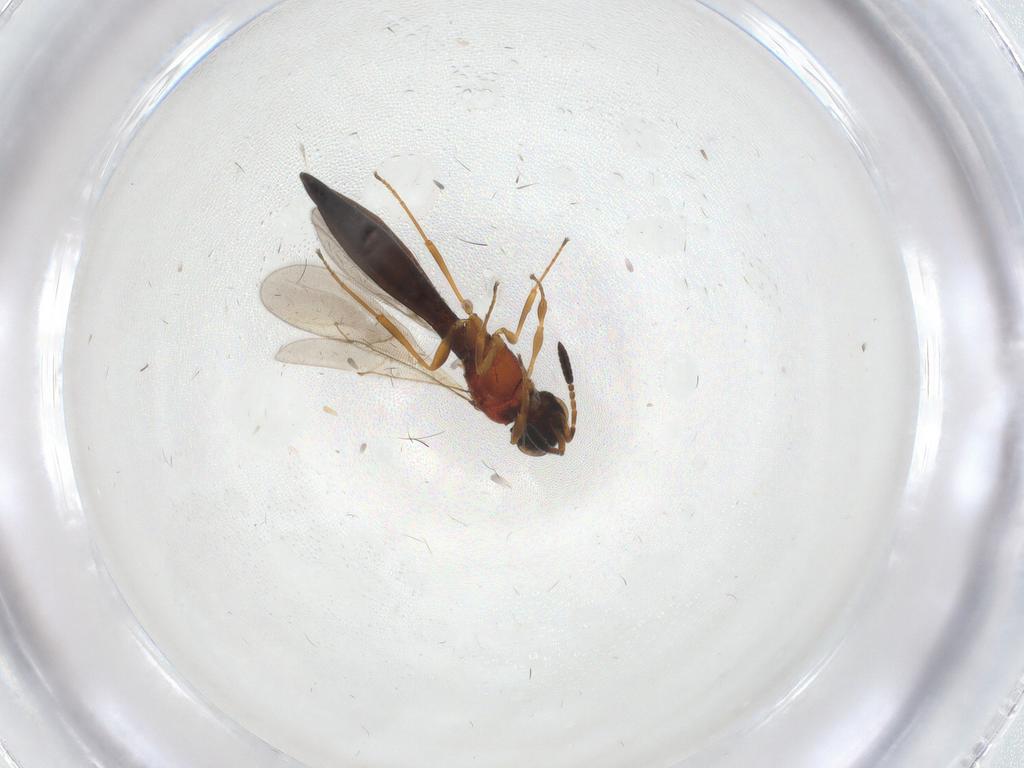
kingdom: Animalia
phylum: Arthropoda
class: Insecta
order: Hymenoptera
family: Scelionidae
